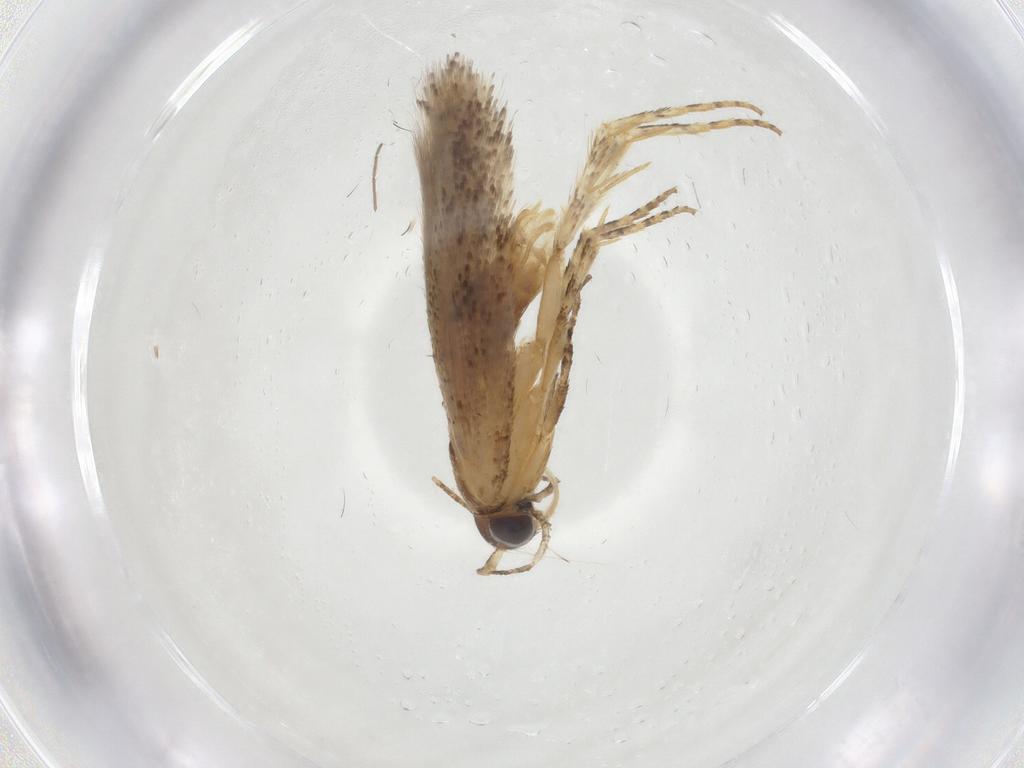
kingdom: Animalia
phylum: Arthropoda
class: Insecta
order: Lepidoptera
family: Gelechiidae
